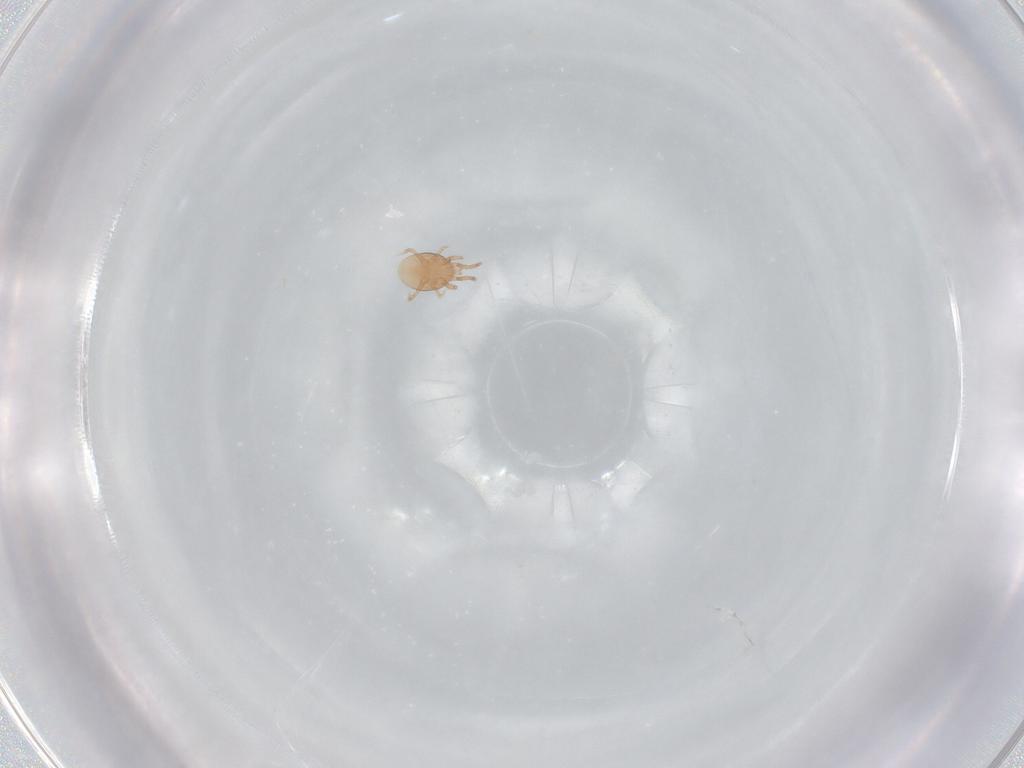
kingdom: Animalia
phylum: Arthropoda
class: Arachnida
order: Mesostigmata
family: Laelapidae
